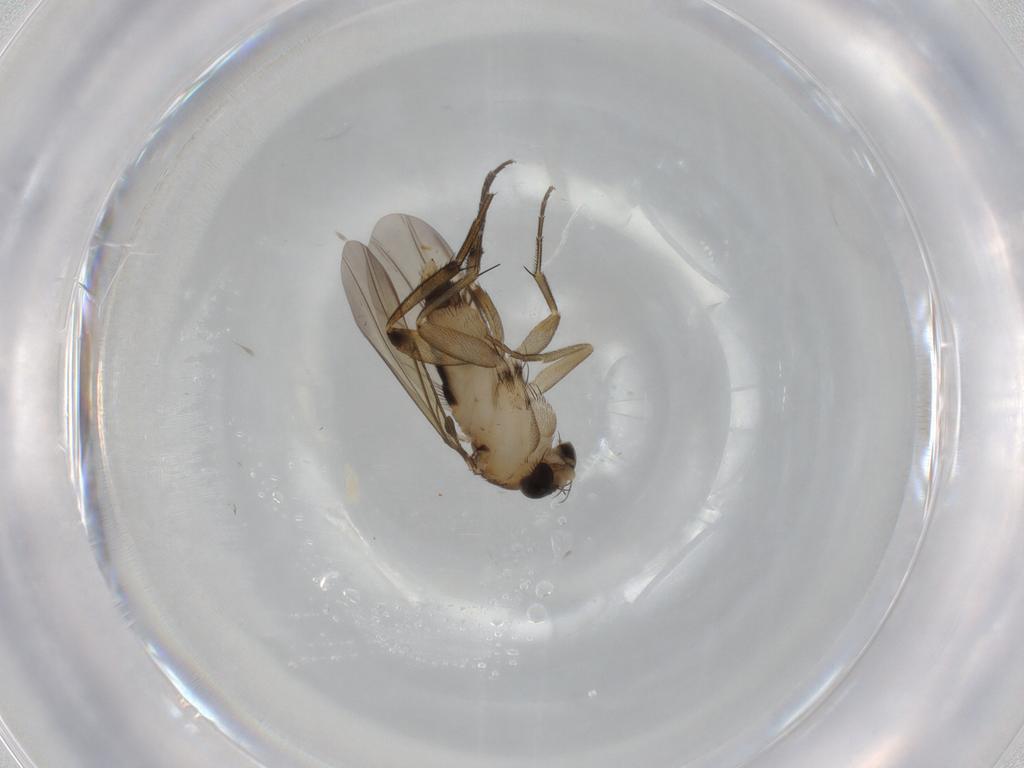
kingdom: Animalia
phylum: Arthropoda
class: Insecta
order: Diptera
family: Phoridae
